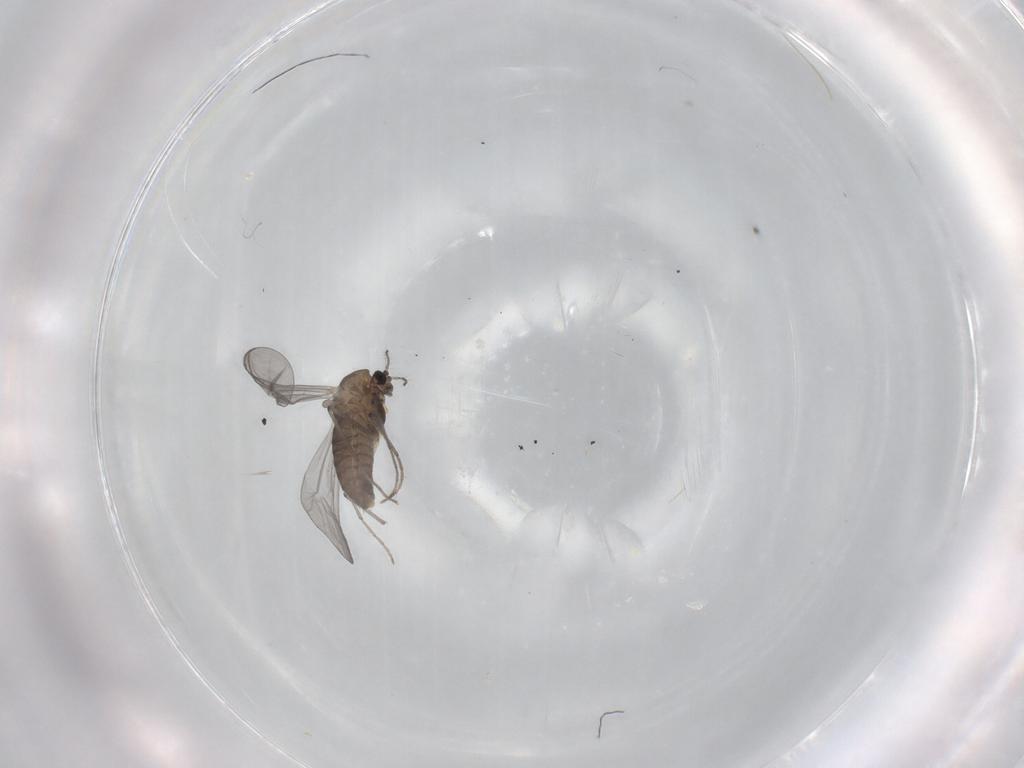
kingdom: Animalia
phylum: Arthropoda
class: Insecta
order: Diptera
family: Chironomidae
